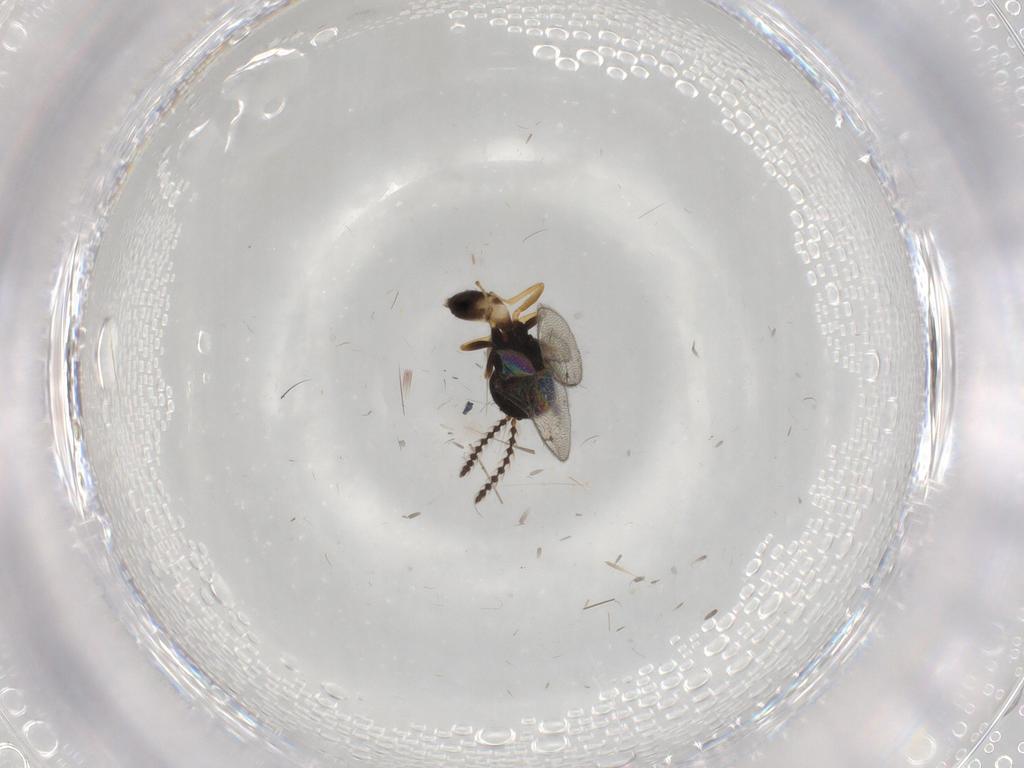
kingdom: Animalia
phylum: Arthropoda
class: Insecta
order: Hymenoptera
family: Pteromalidae
